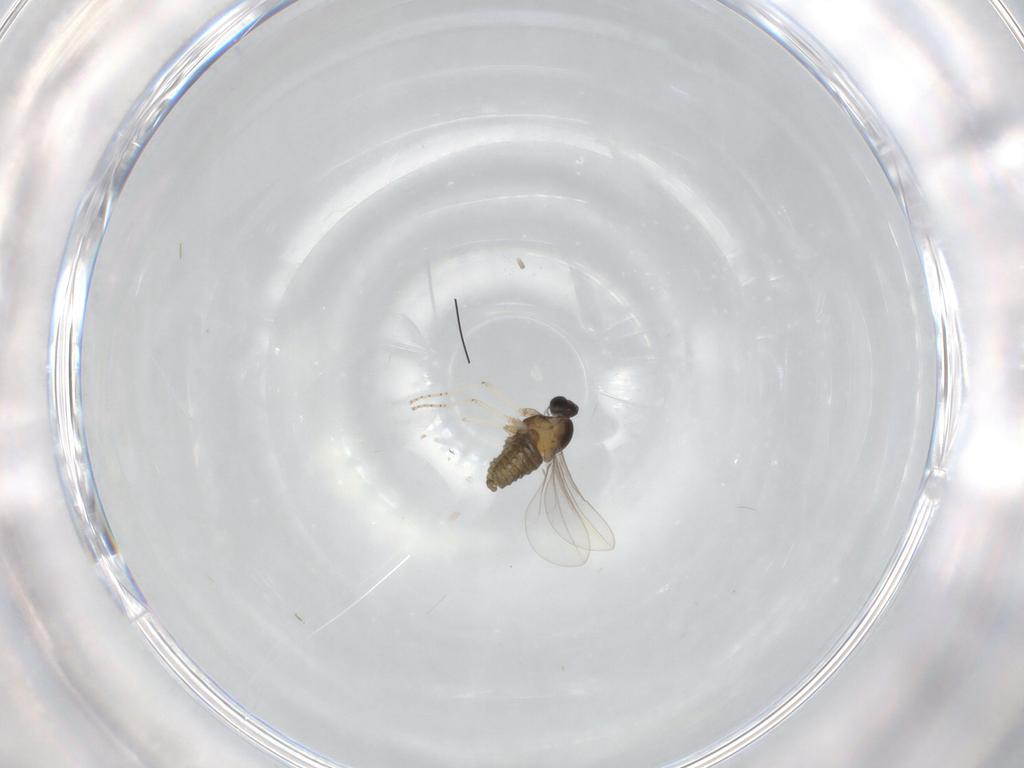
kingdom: Animalia
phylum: Arthropoda
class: Insecta
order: Diptera
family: Cecidomyiidae
